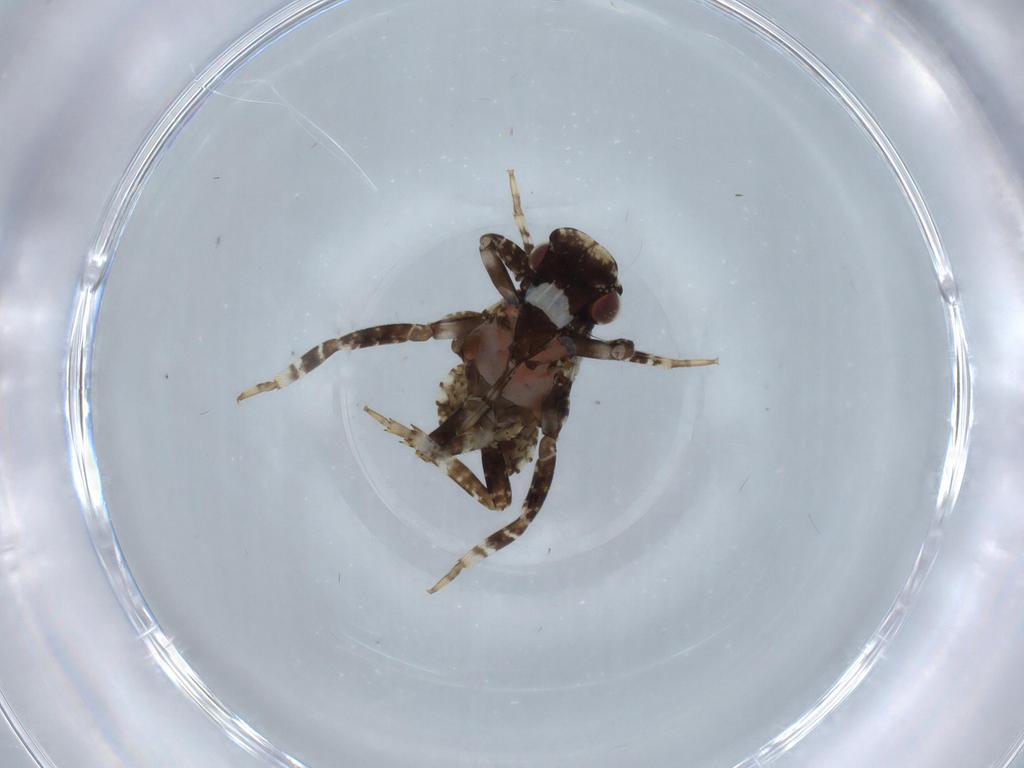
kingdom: Animalia
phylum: Arthropoda
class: Insecta
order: Hemiptera
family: Fulgoridae
